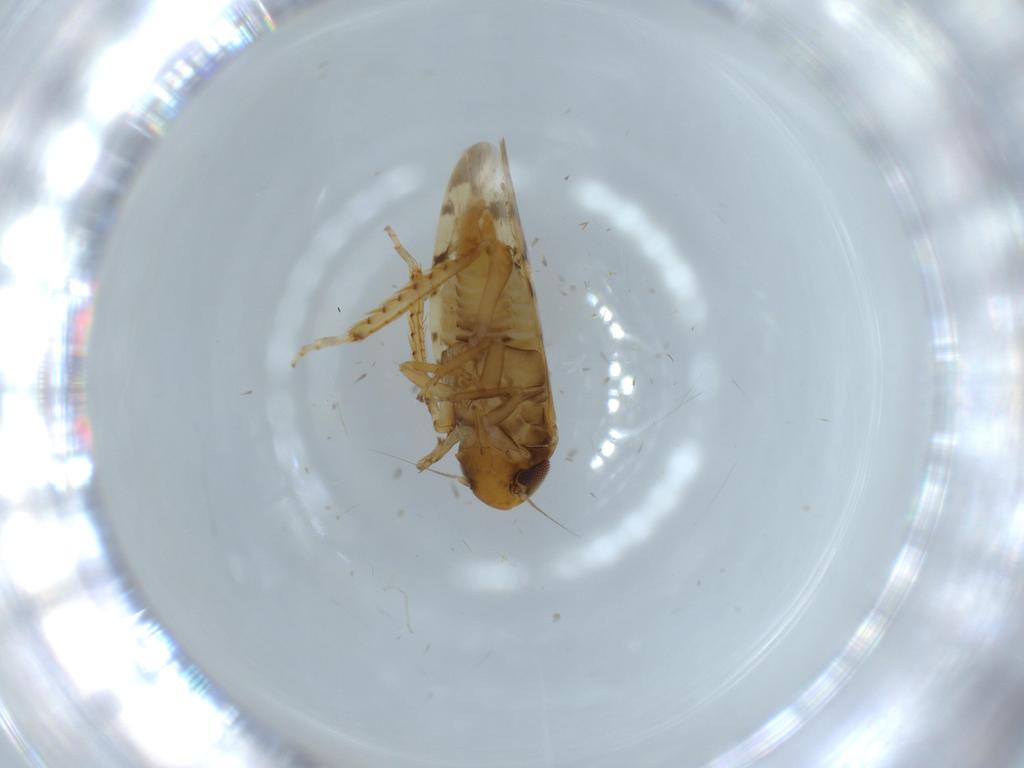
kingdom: Animalia
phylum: Arthropoda
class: Insecta
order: Hemiptera
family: Cicadellidae
